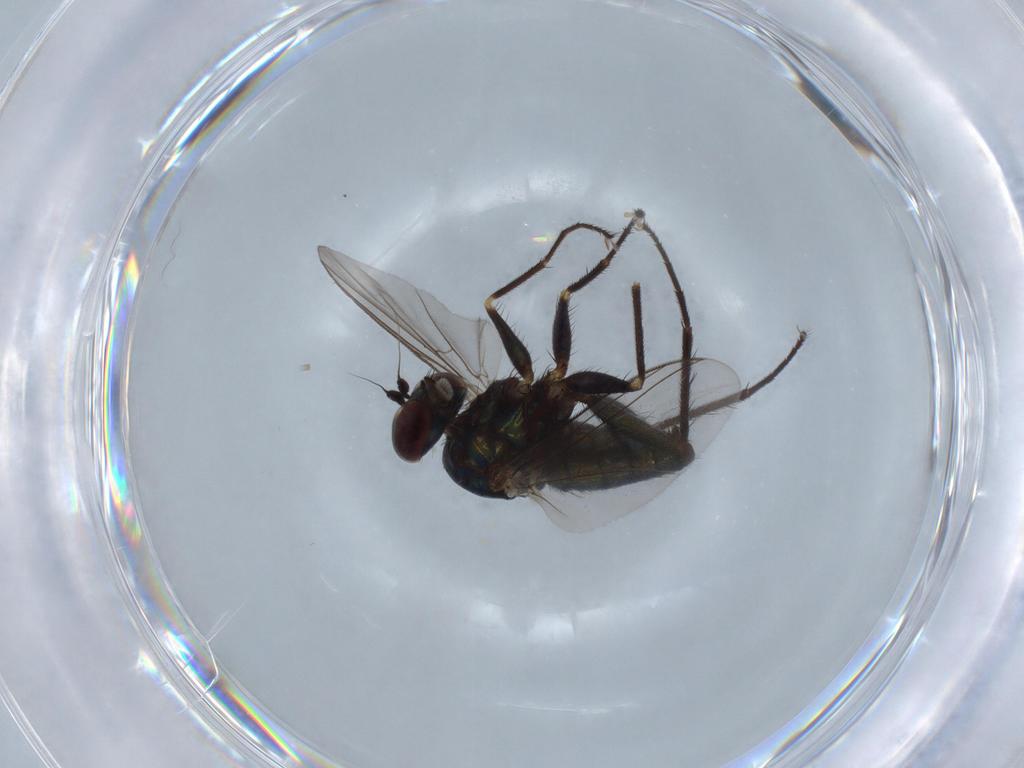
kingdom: Animalia
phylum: Arthropoda
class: Insecta
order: Diptera
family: Dolichopodidae
